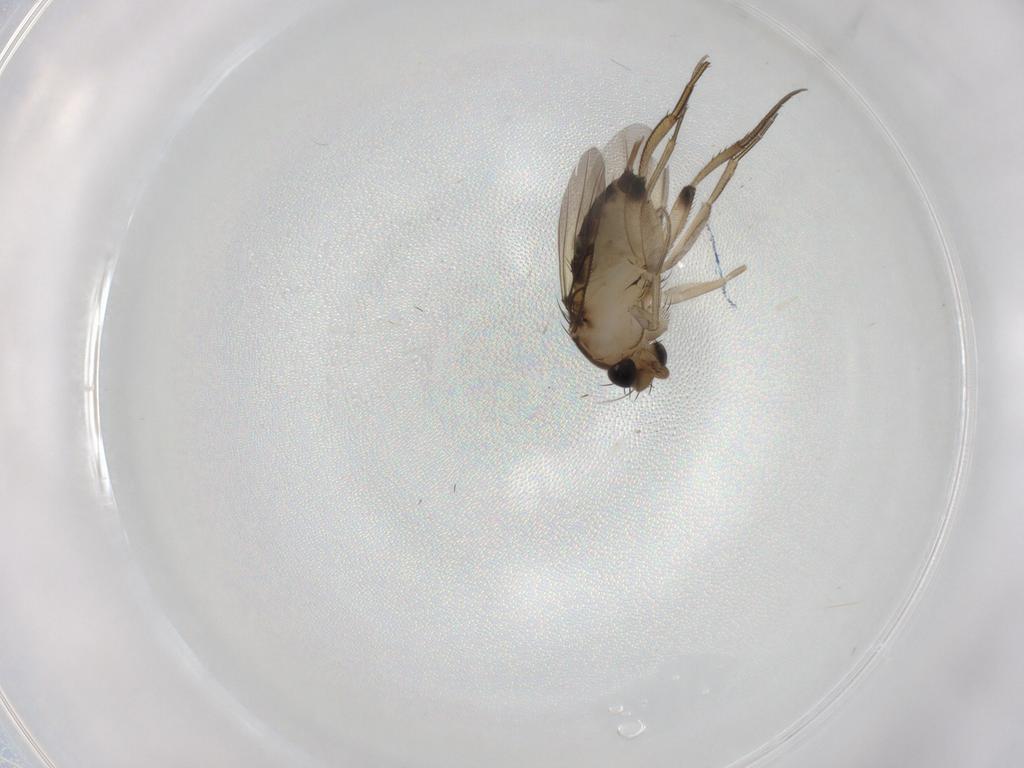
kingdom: Animalia
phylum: Arthropoda
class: Insecta
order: Diptera
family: Phoridae
